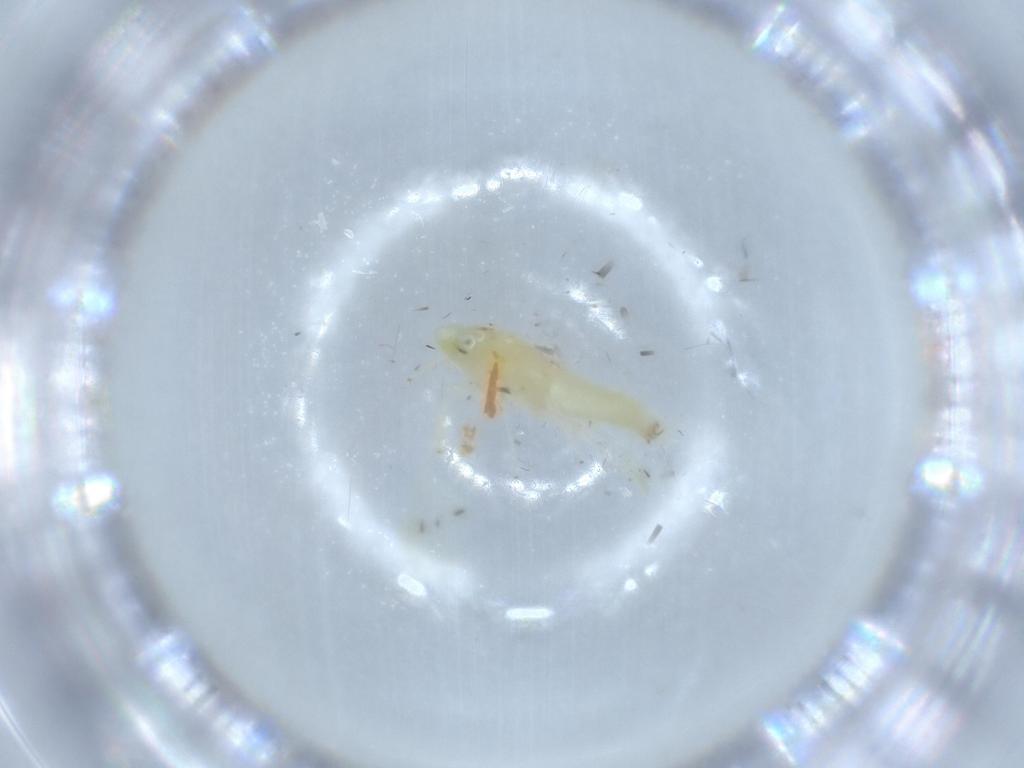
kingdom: Animalia
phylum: Arthropoda
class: Insecta
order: Hemiptera
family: Cicadellidae
